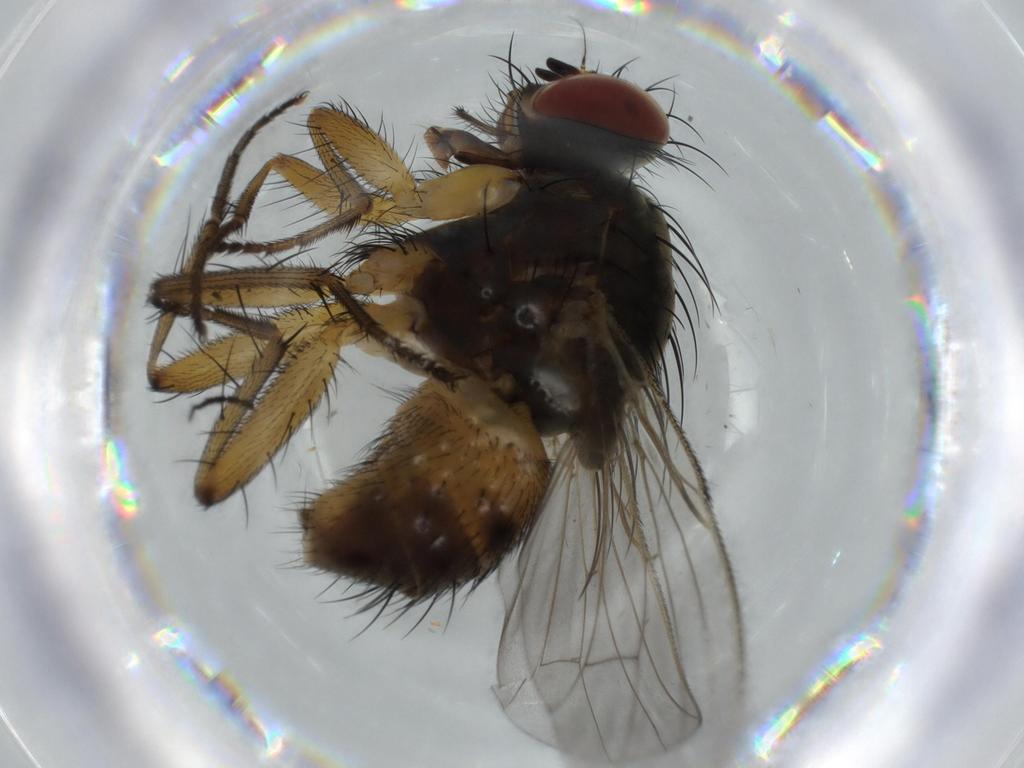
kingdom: Animalia
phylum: Arthropoda
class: Insecta
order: Diptera
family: Muscidae
